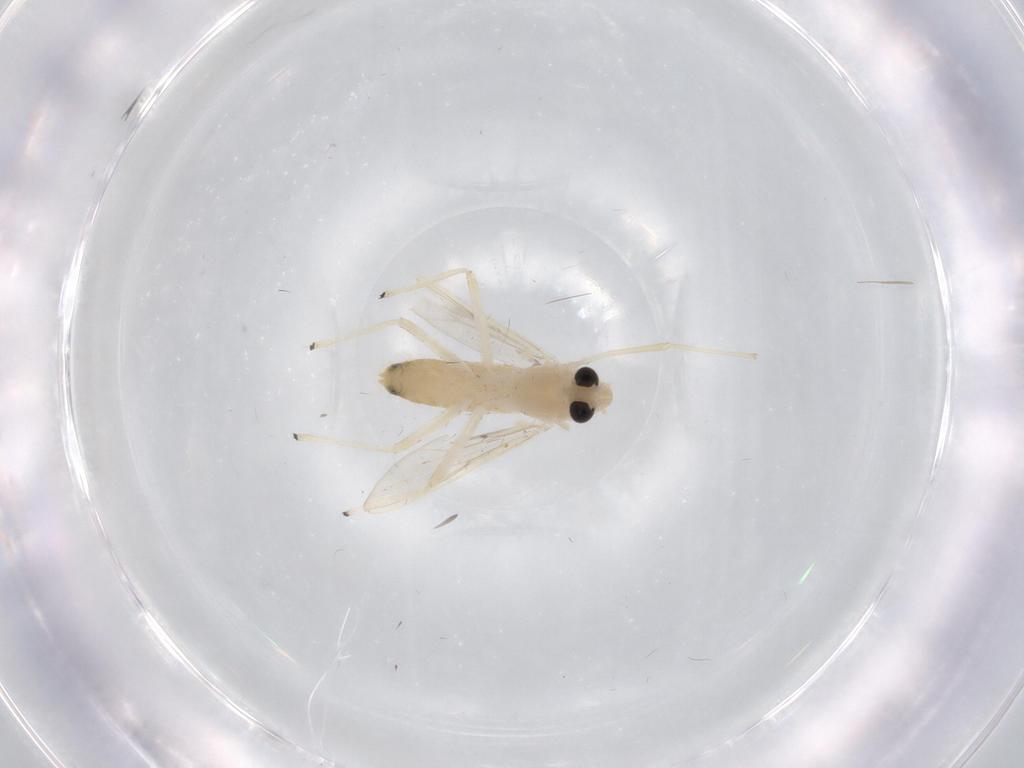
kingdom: Animalia
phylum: Arthropoda
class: Insecta
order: Diptera
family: Chironomidae
